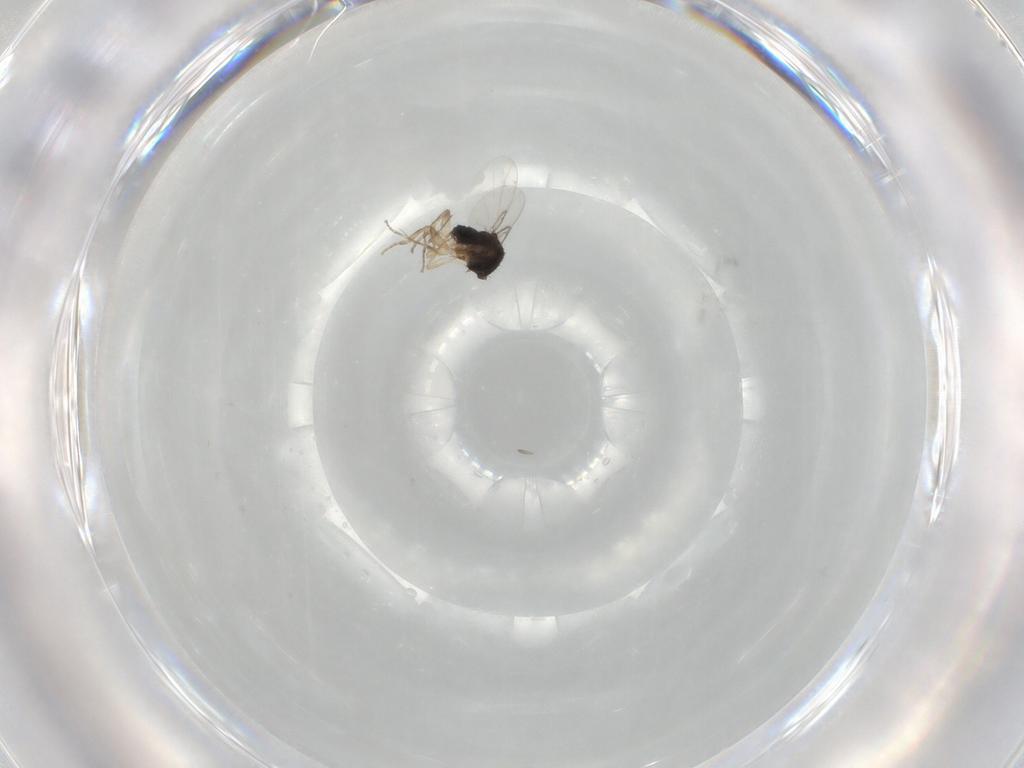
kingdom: Animalia
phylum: Arthropoda
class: Insecta
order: Diptera
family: Phoridae
